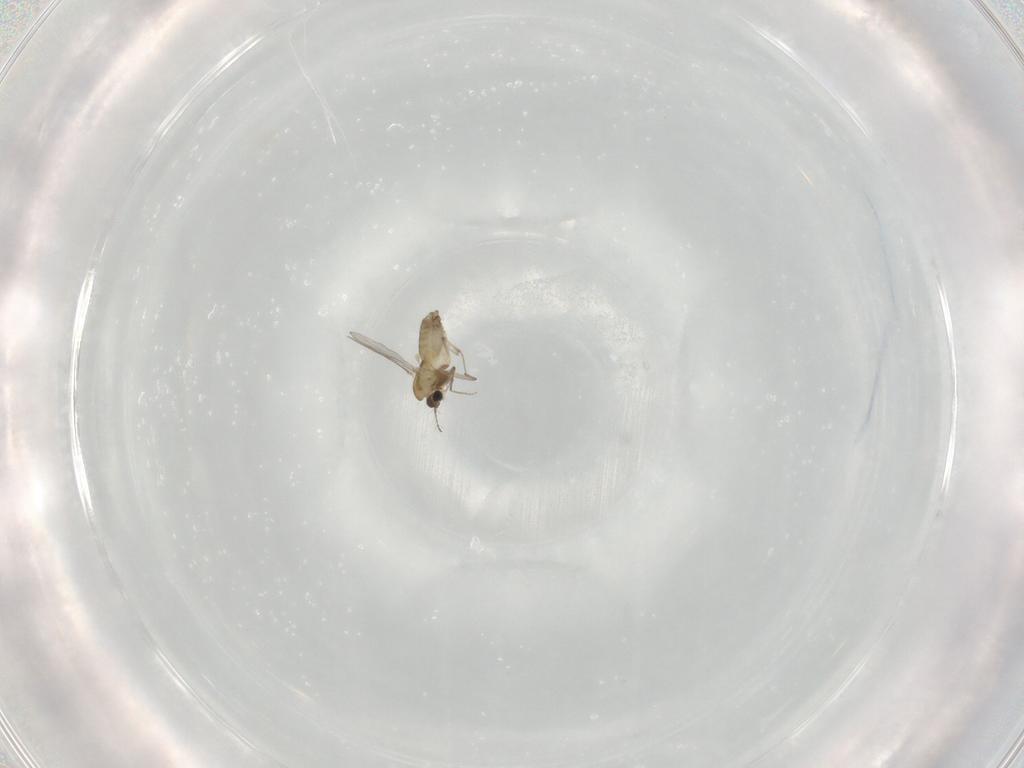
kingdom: Animalia
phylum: Arthropoda
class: Insecta
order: Diptera
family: Chironomidae
